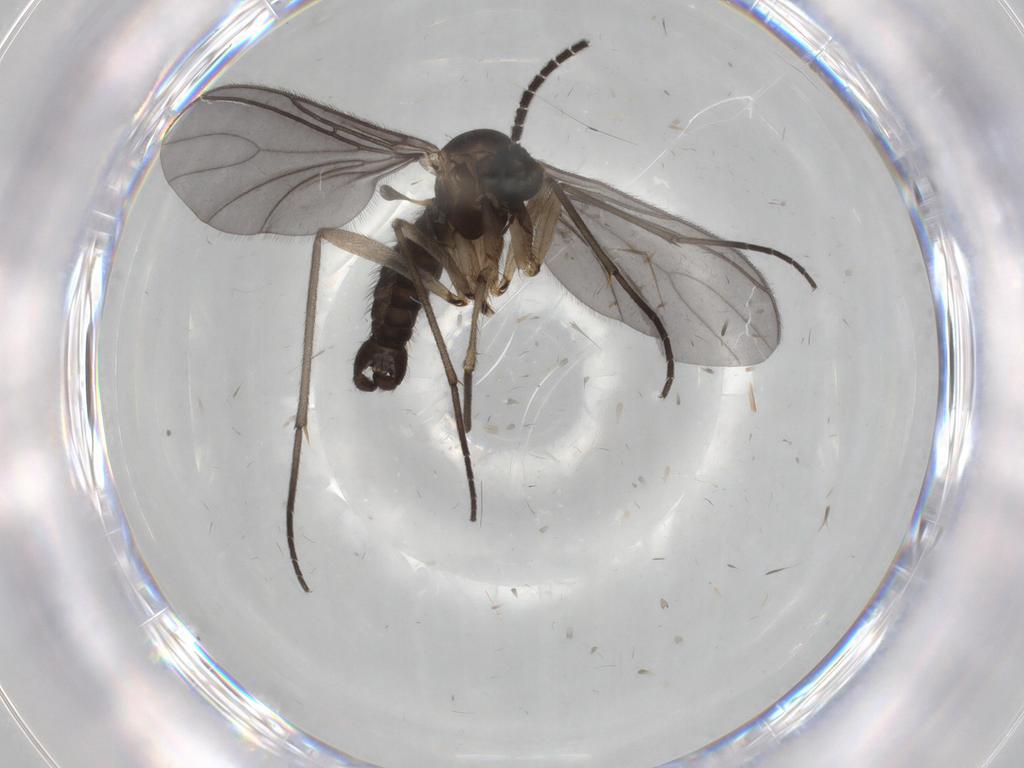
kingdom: Animalia
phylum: Arthropoda
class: Insecta
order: Diptera
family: Sciaridae
